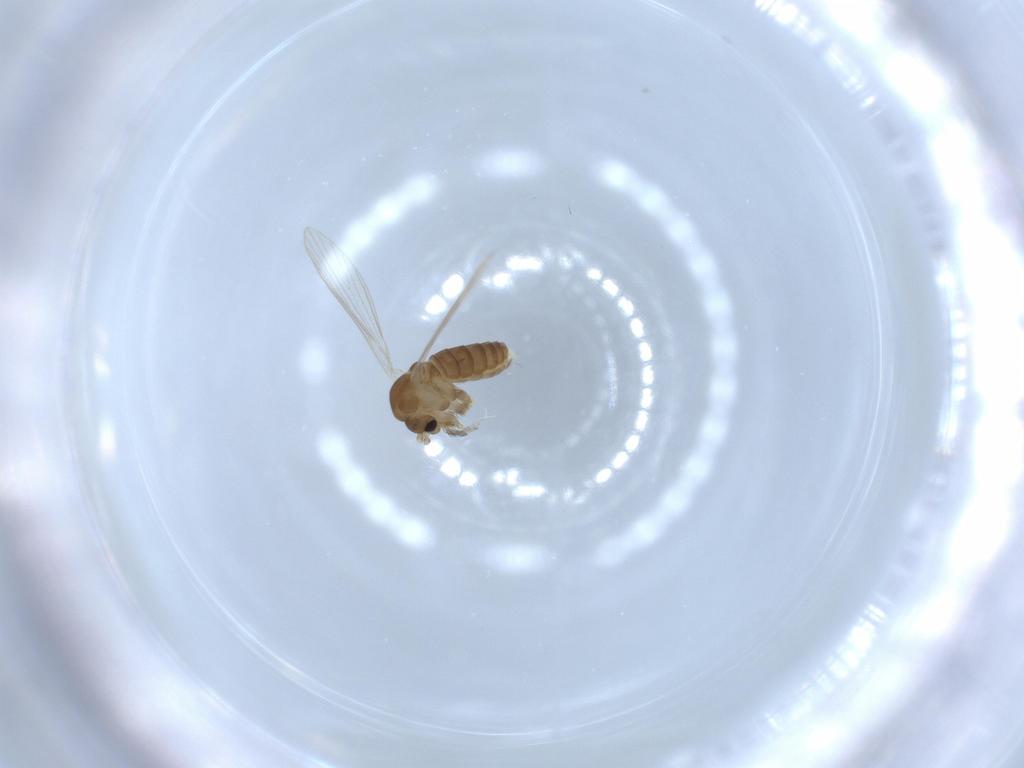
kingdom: Animalia
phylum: Arthropoda
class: Insecta
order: Diptera
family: Psychodidae
